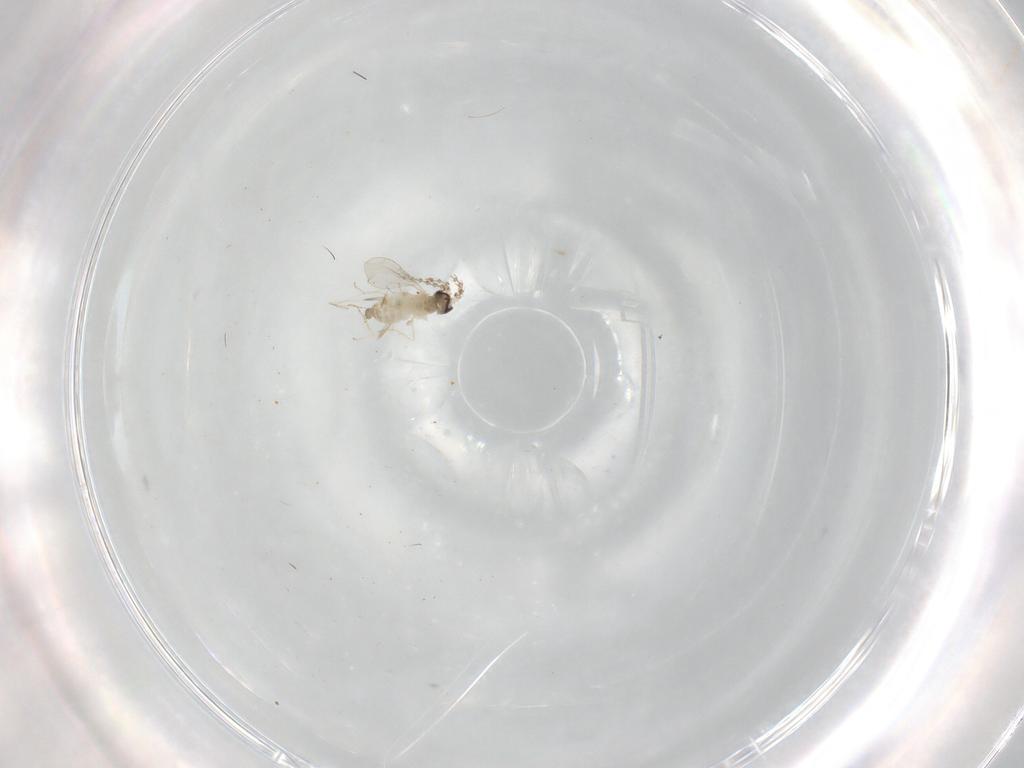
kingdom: Animalia
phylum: Arthropoda
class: Insecta
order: Diptera
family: Cecidomyiidae
